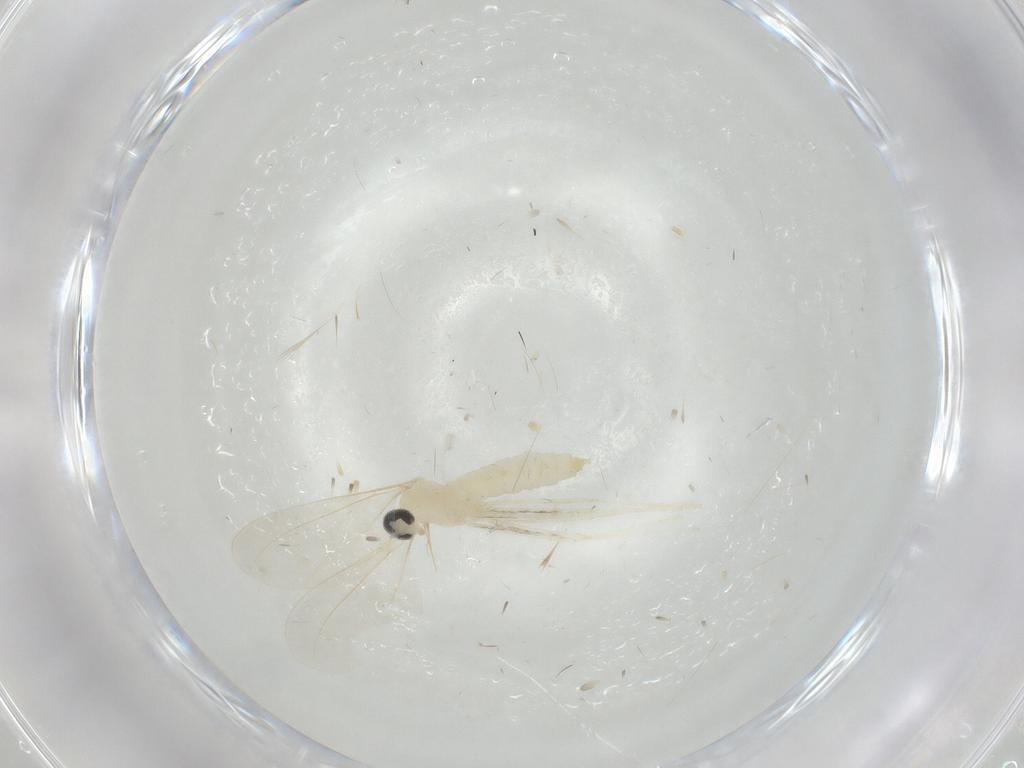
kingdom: Animalia
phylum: Arthropoda
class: Insecta
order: Diptera
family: Cecidomyiidae
